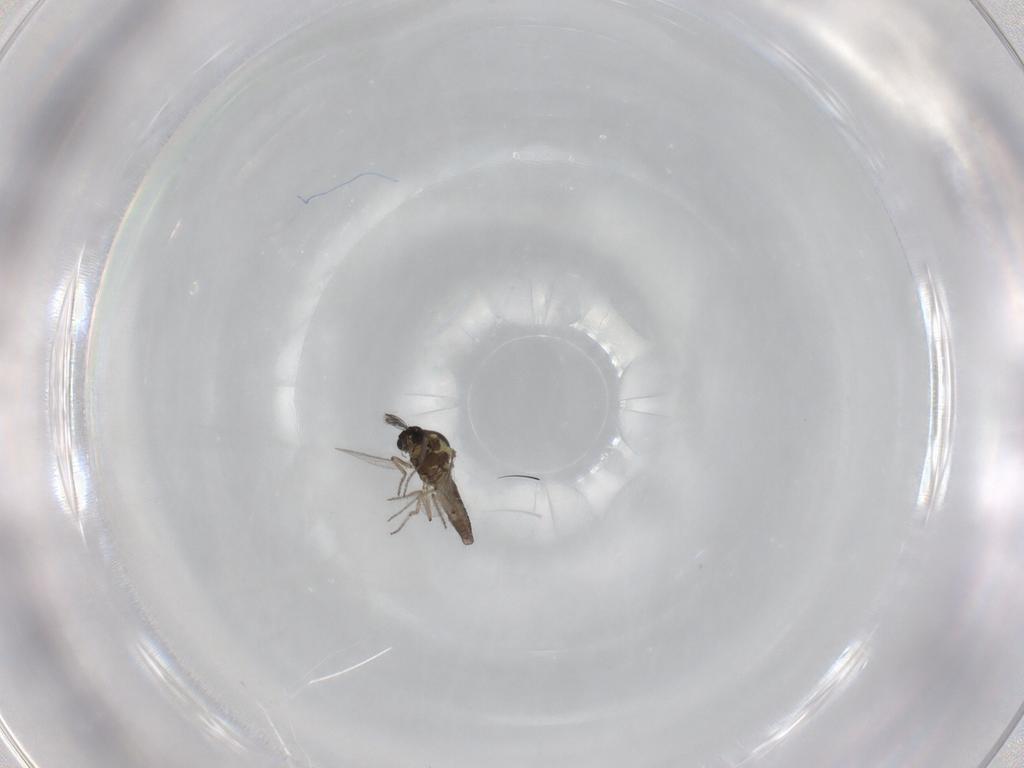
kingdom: Animalia
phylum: Arthropoda
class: Insecta
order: Diptera
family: Ceratopogonidae
